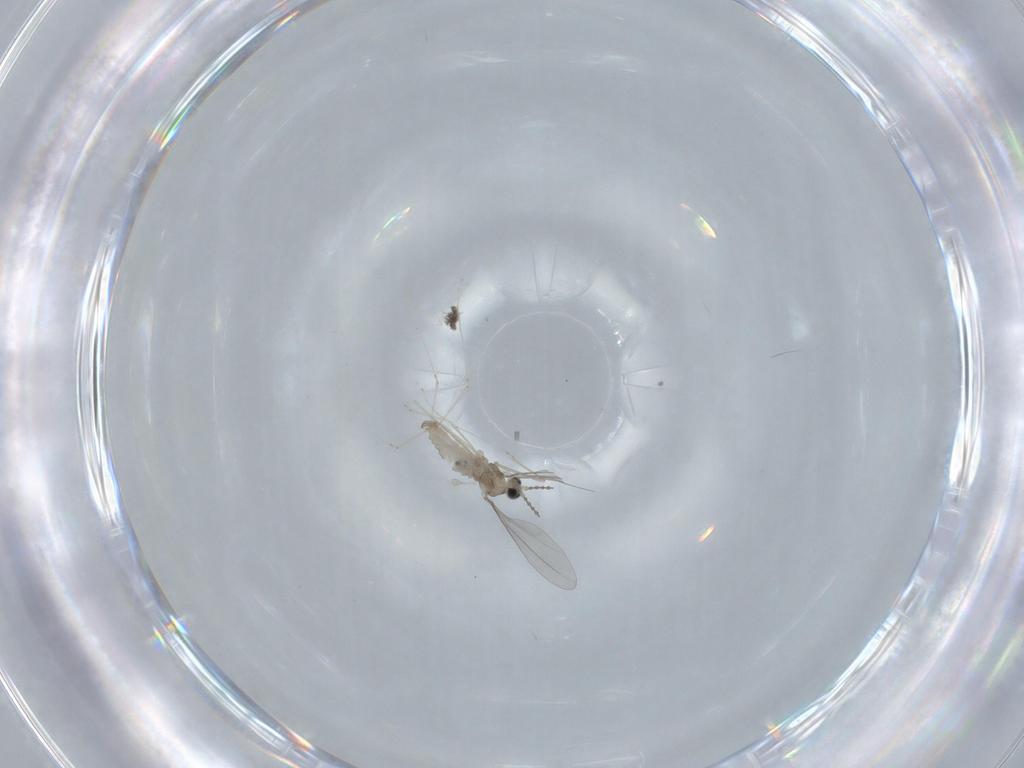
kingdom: Animalia
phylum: Arthropoda
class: Insecta
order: Diptera
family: Cecidomyiidae
